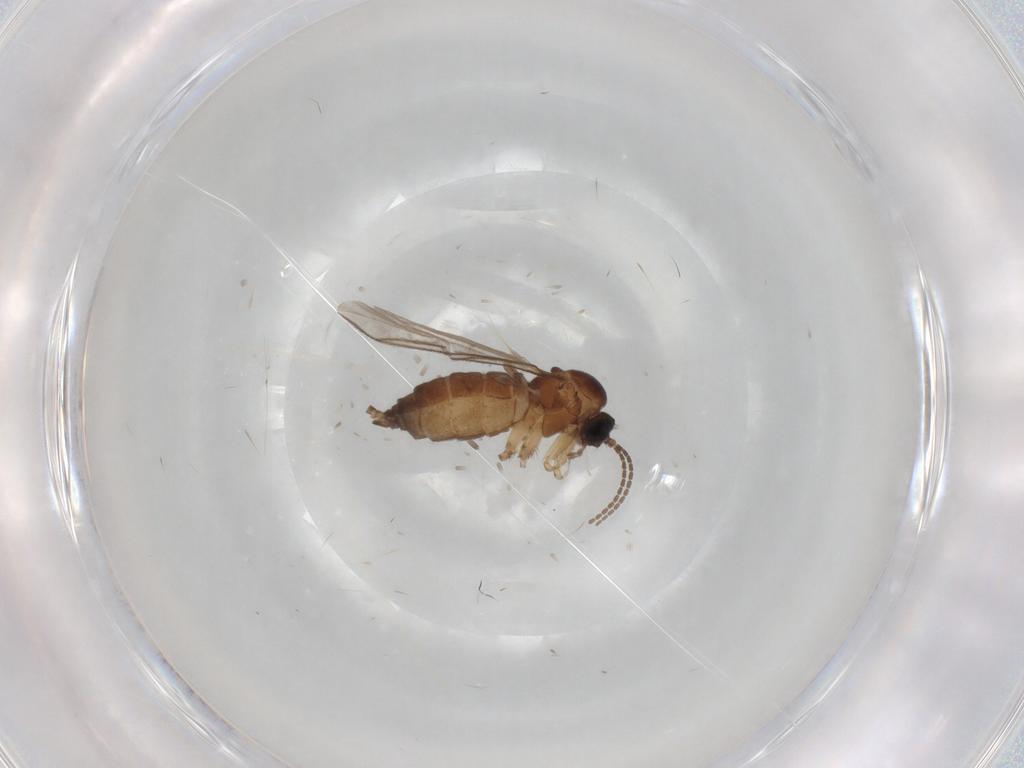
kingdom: Animalia
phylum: Arthropoda
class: Insecta
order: Diptera
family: Sciaridae
